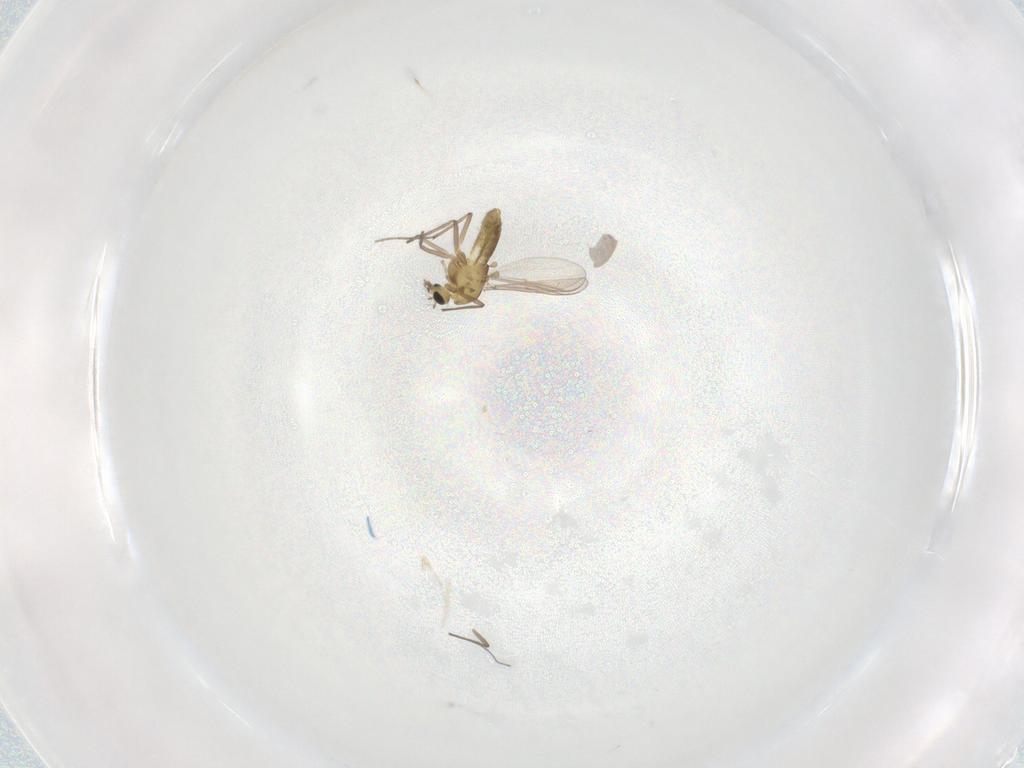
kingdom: Animalia
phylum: Arthropoda
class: Insecta
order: Diptera
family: Chironomidae
